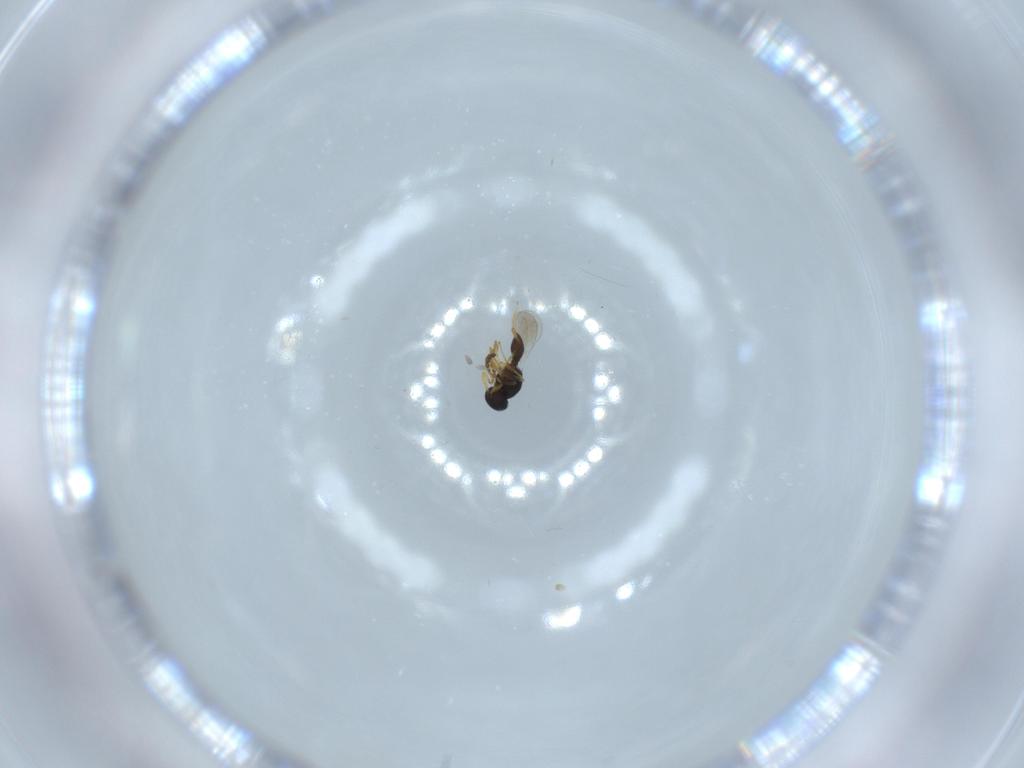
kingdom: Animalia
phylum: Arthropoda
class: Insecta
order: Hymenoptera
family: Platygastridae
